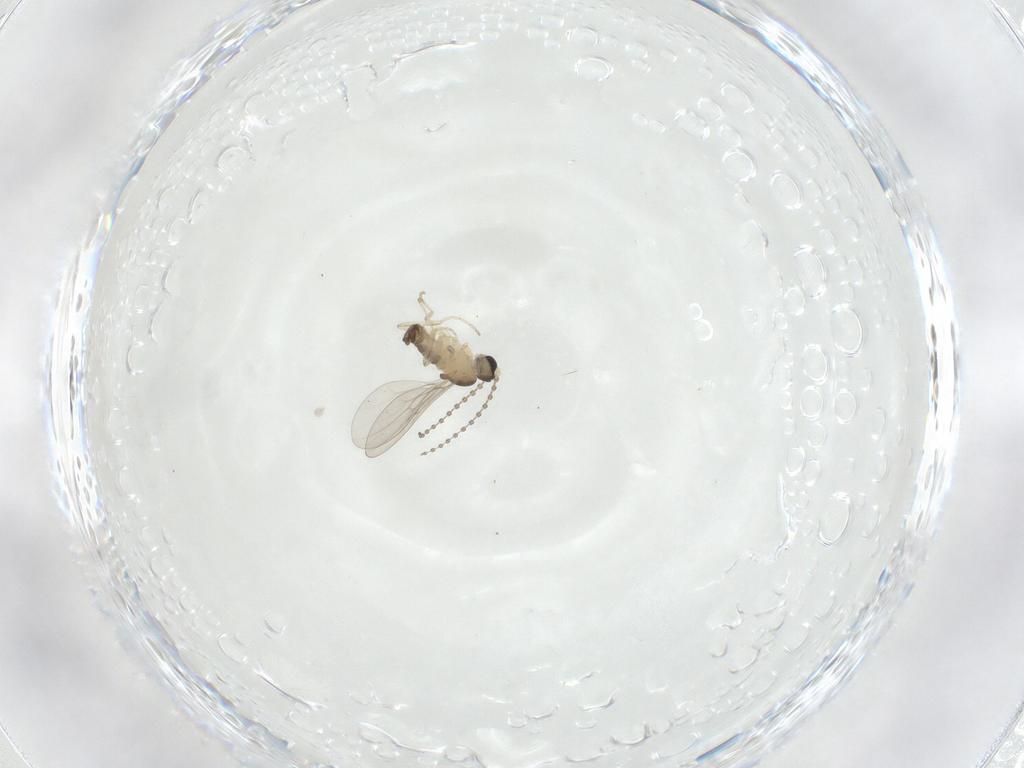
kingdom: Animalia
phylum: Arthropoda
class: Insecta
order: Diptera
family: Cecidomyiidae
